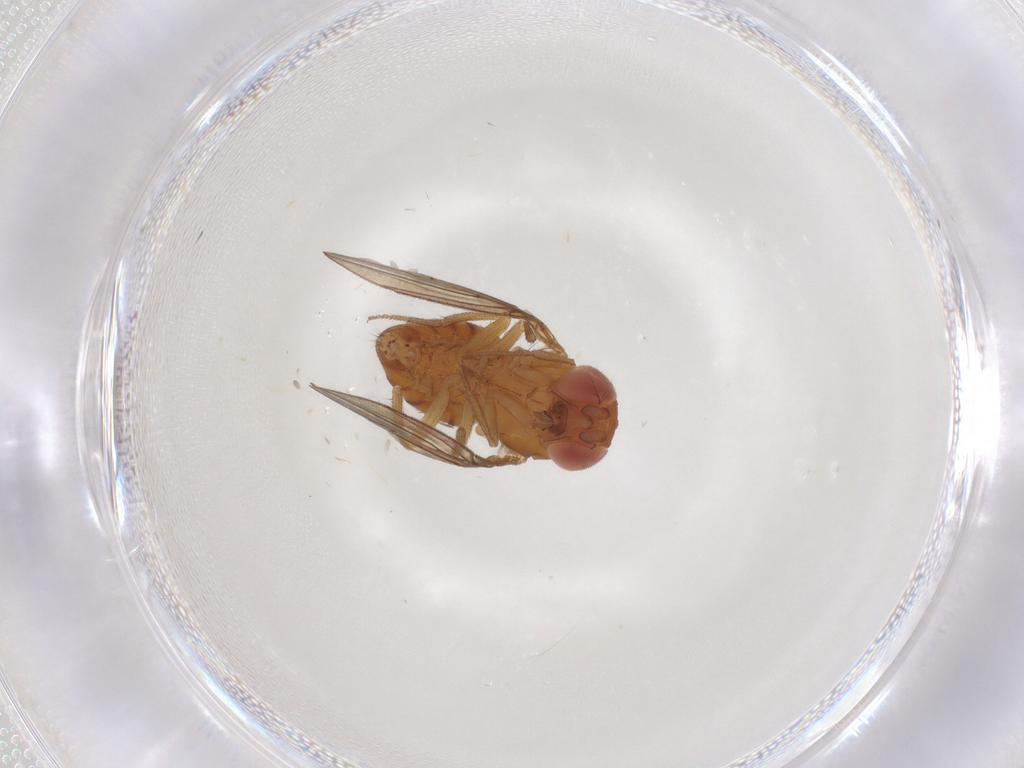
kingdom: Animalia
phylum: Arthropoda
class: Insecta
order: Diptera
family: Drosophilidae
